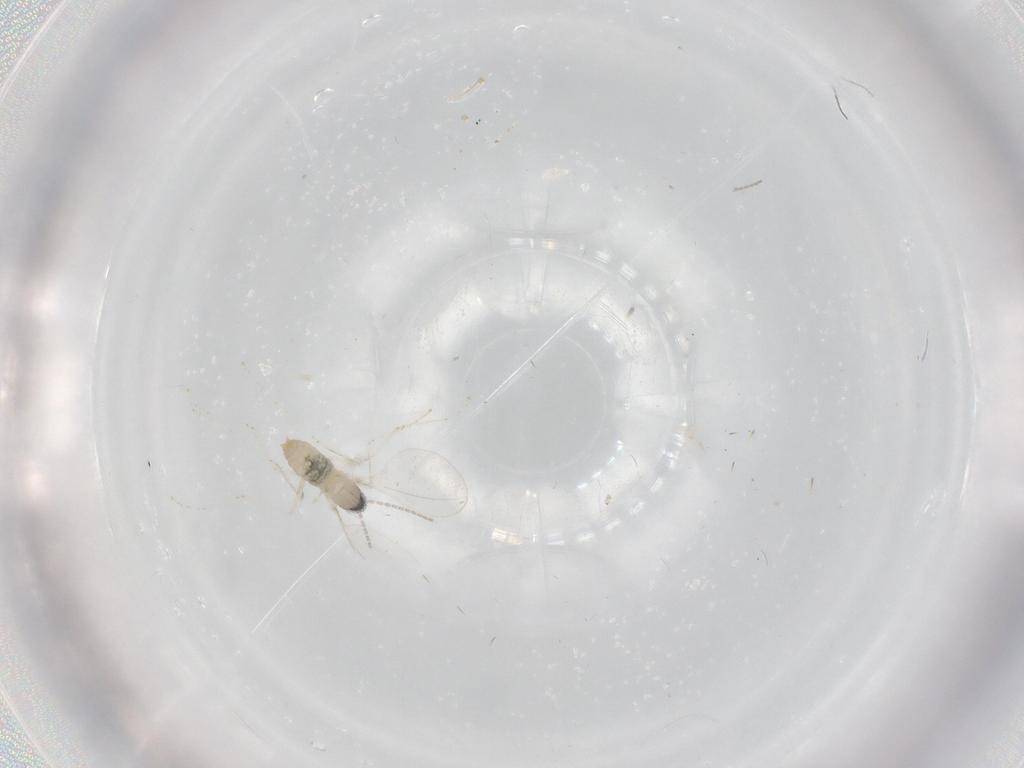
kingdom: Animalia
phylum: Arthropoda
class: Insecta
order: Diptera
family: Cecidomyiidae
